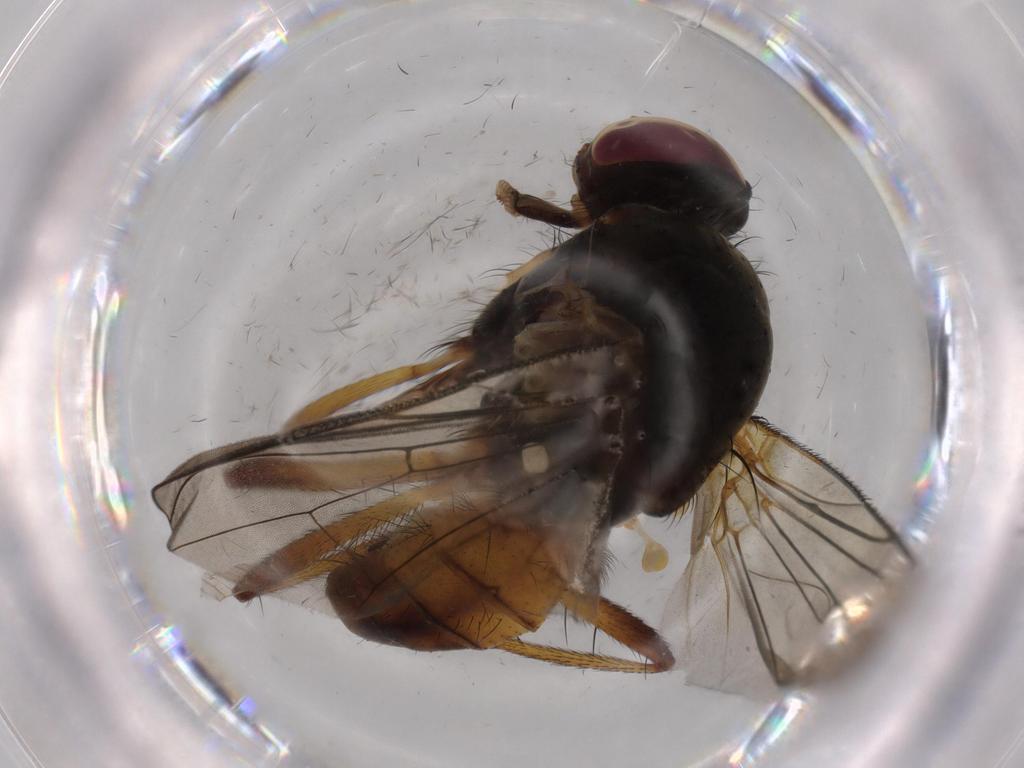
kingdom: Animalia
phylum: Arthropoda
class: Insecta
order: Diptera
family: Anthomyiidae
